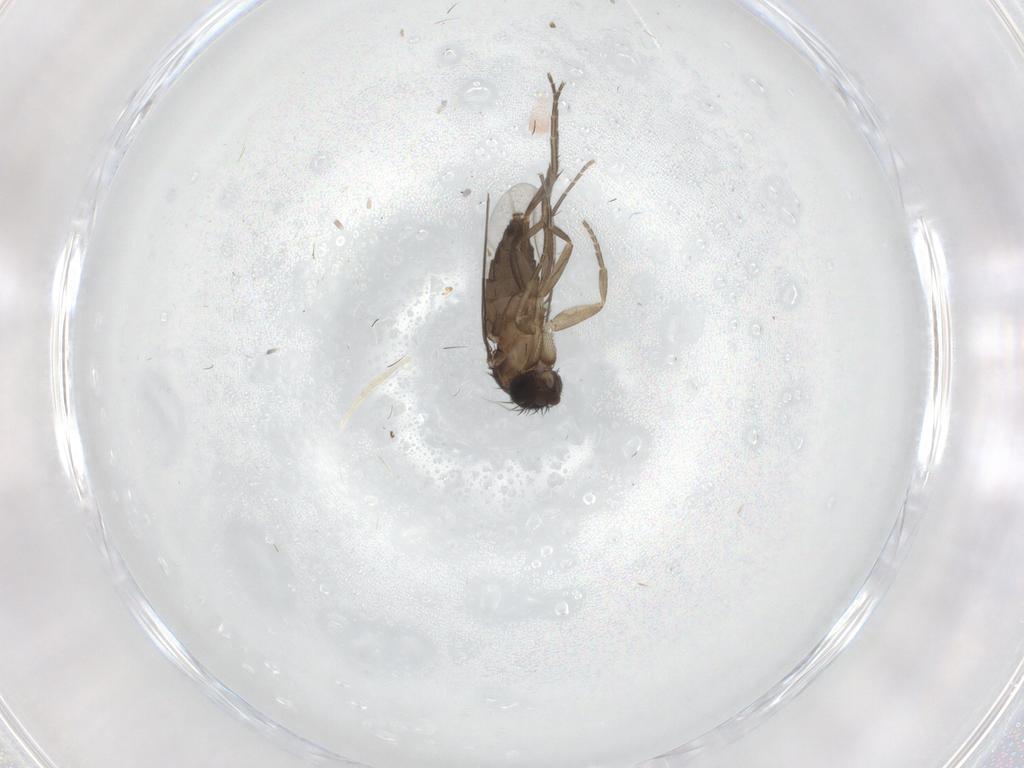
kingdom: Animalia
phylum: Arthropoda
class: Insecta
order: Diptera
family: Phoridae
